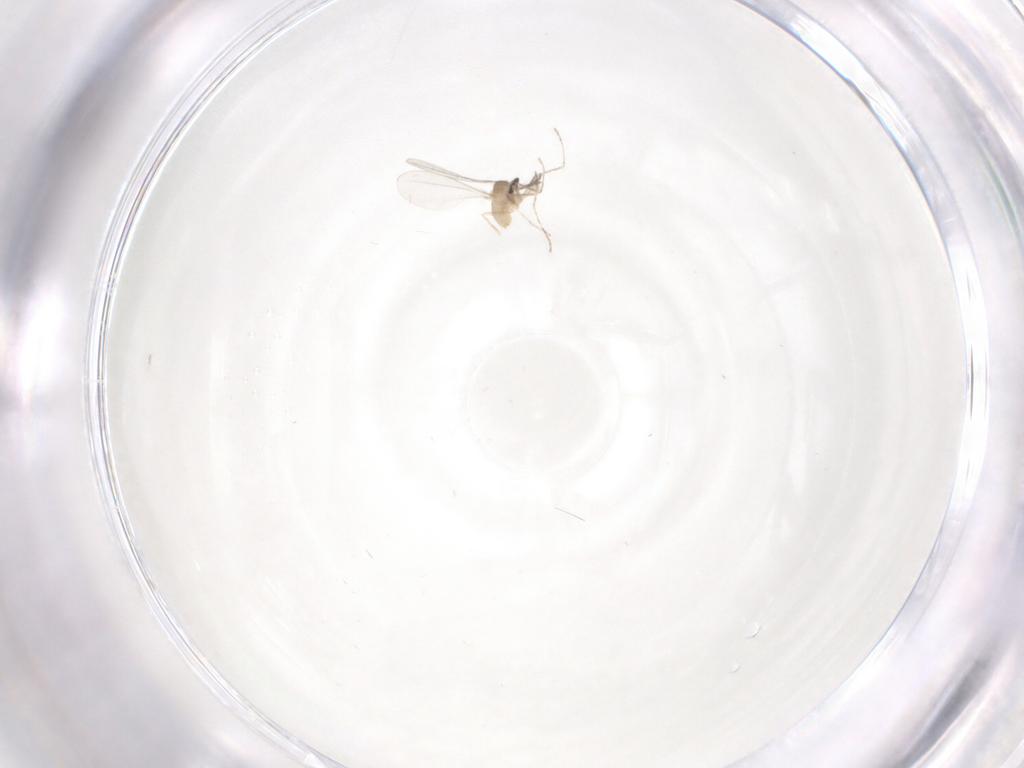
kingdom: Animalia
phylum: Arthropoda
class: Insecta
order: Diptera
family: Cecidomyiidae
